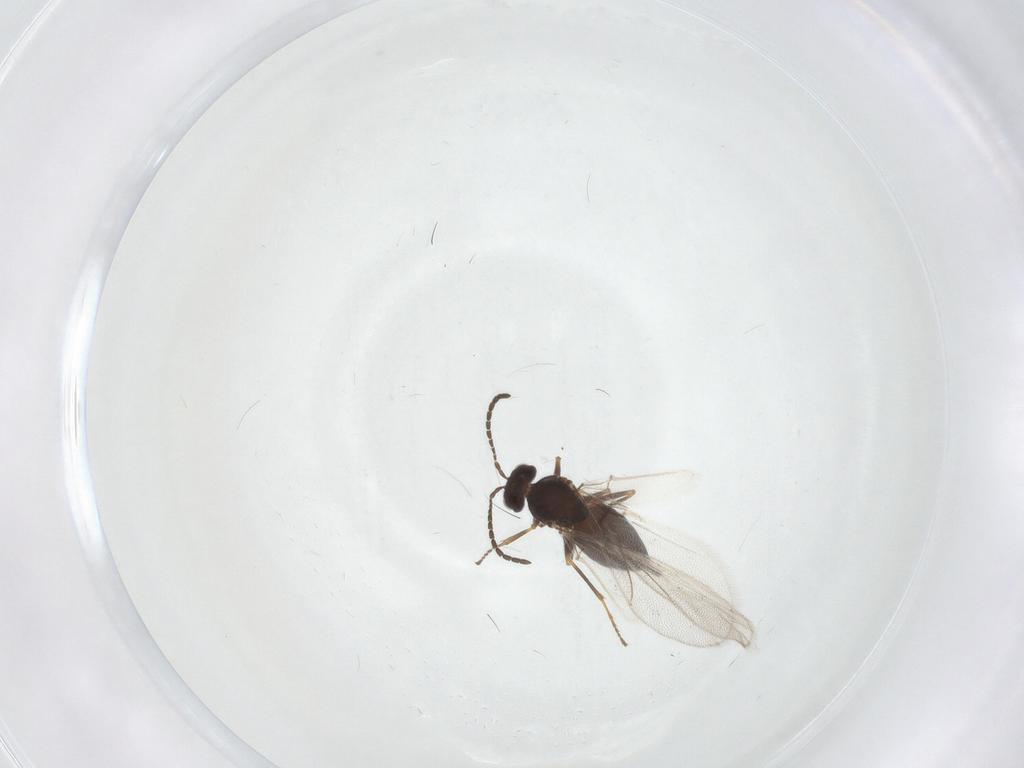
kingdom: Animalia
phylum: Arthropoda
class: Insecta
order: Hymenoptera
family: Cynipidae
